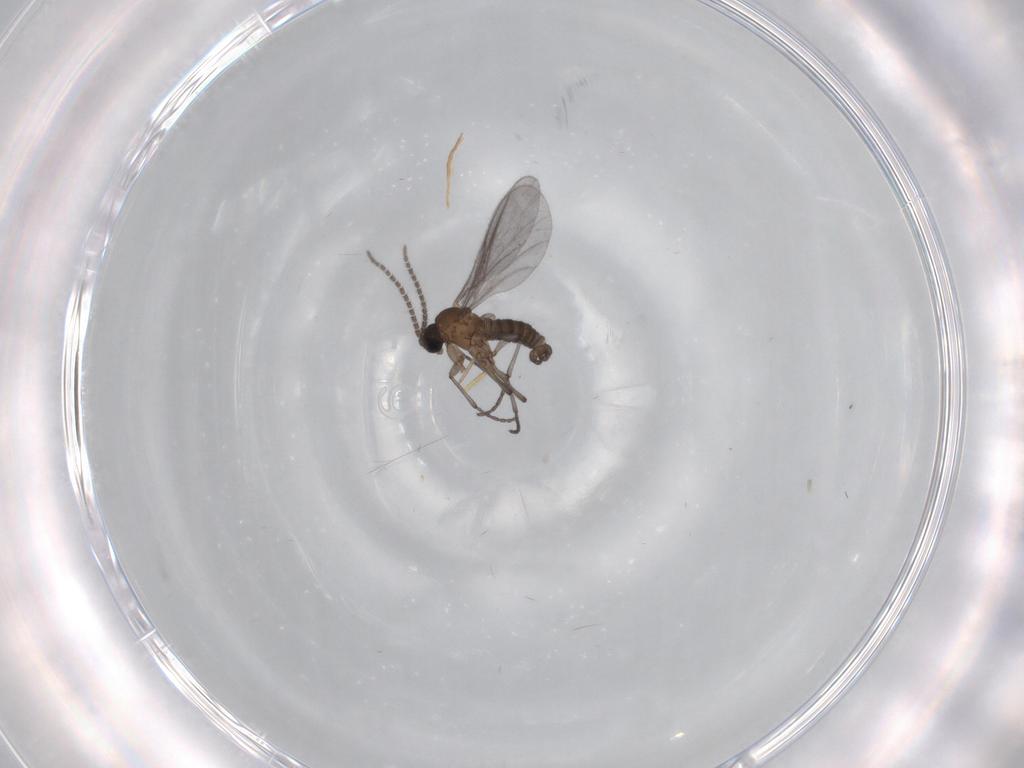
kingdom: Animalia
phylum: Arthropoda
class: Insecta
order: Diptera
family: Sciaridae
